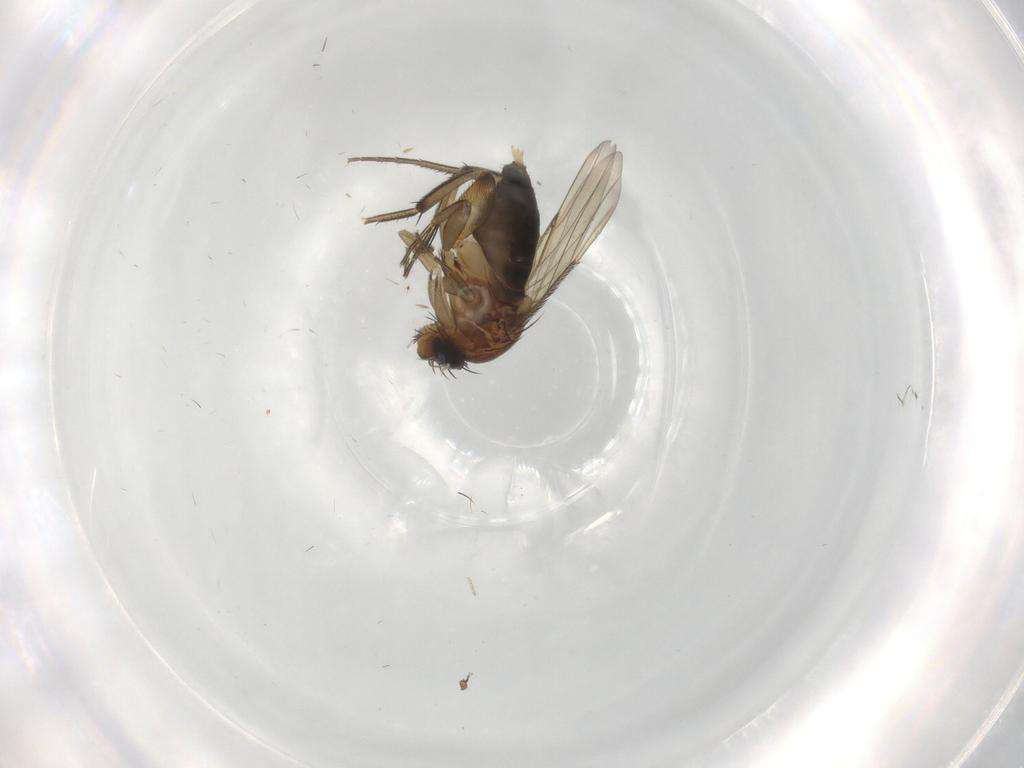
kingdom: Animalia
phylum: Arthropoda
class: Insecta
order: Diptera
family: Phoridae
